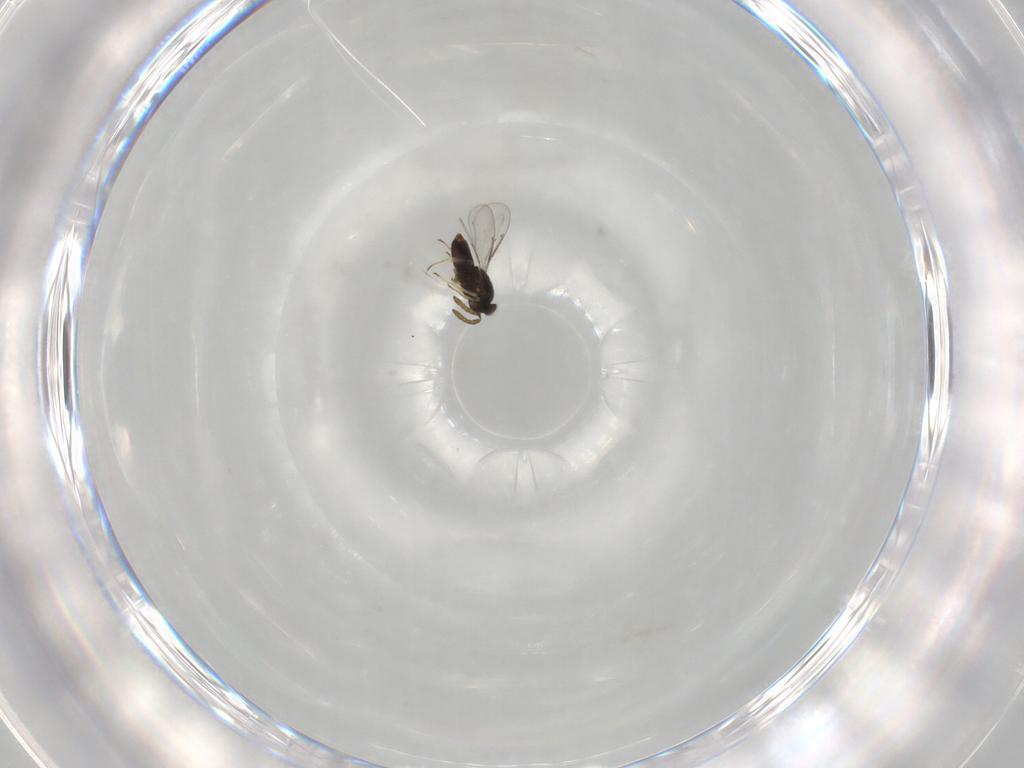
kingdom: Animalia
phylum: Arthropoda
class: Insecta
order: Hymenoptera
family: Aphelinidae
